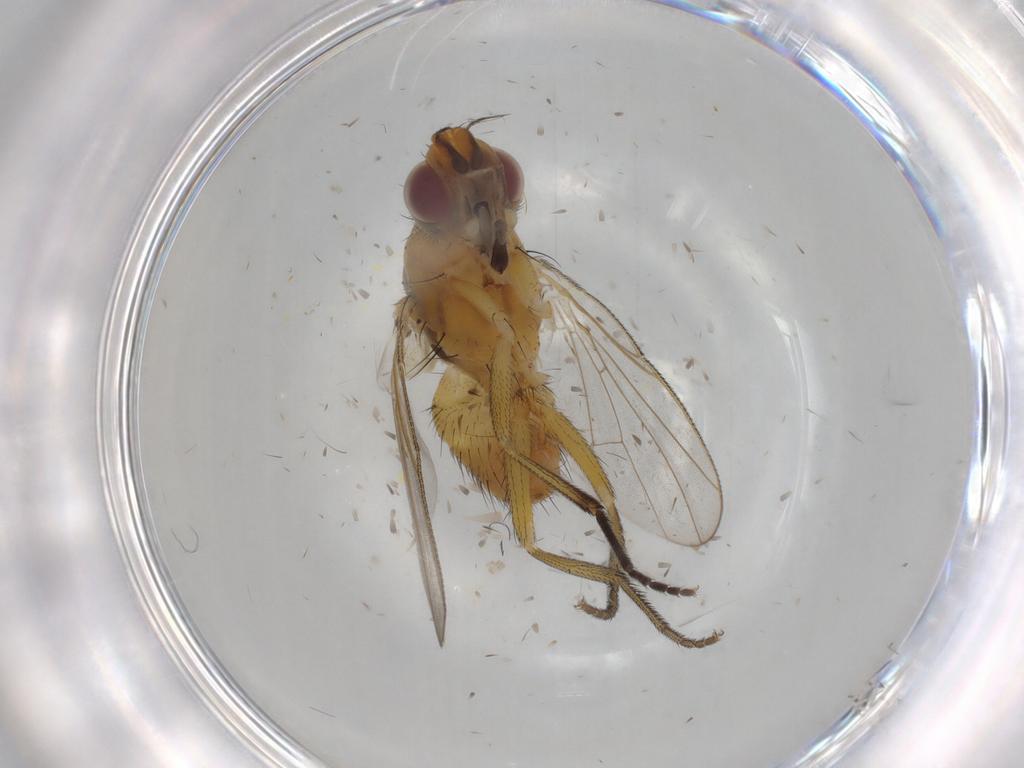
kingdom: Animalia
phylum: Arthropoda
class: Insecta
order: Diptera
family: Muscidae
